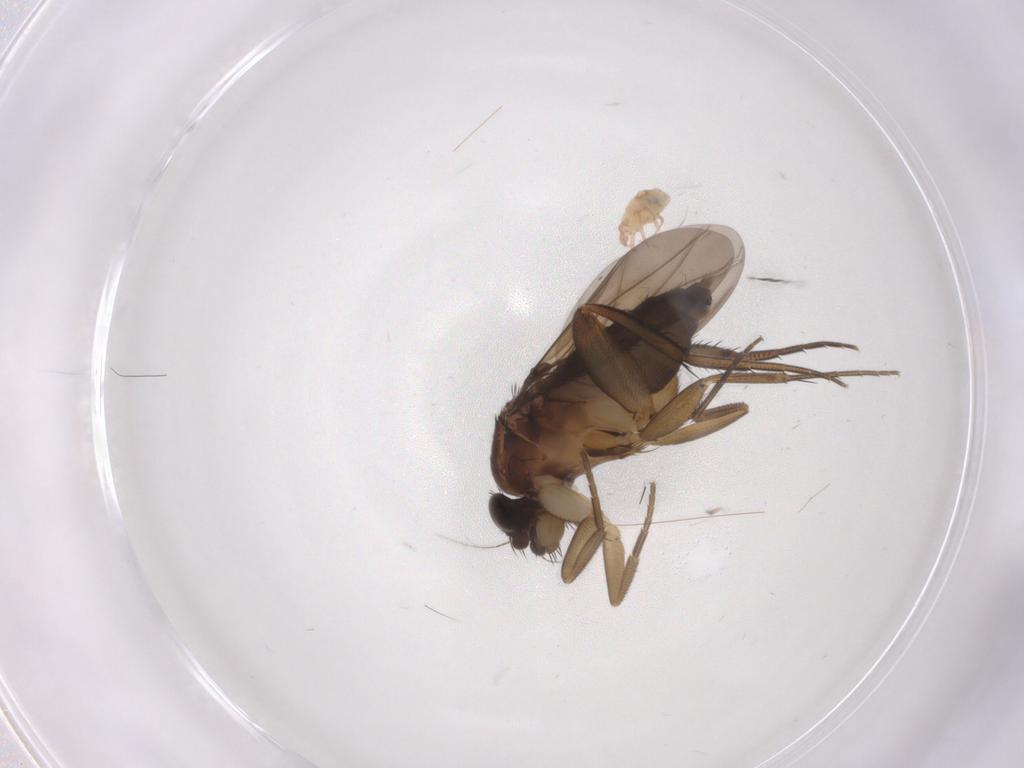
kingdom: Animalia
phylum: Arthropoda
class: Insecta
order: Diptera
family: Phoridae
